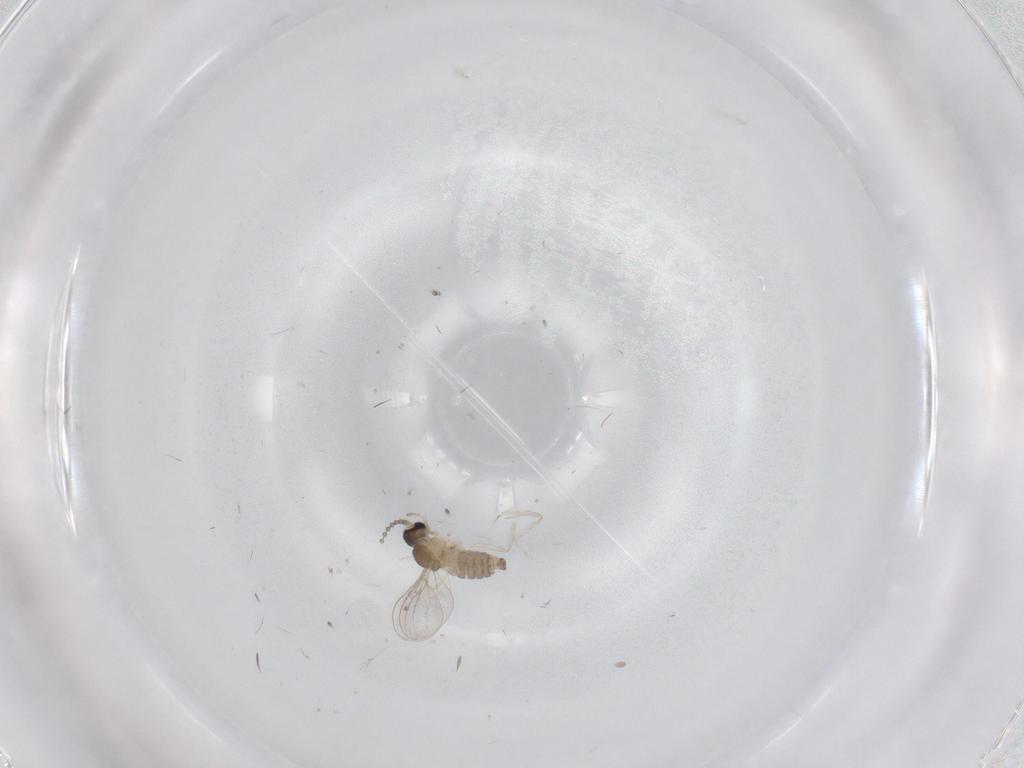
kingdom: Animalia
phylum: Arthropoda
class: Insecta
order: Diptera
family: Cecidomyiidae
